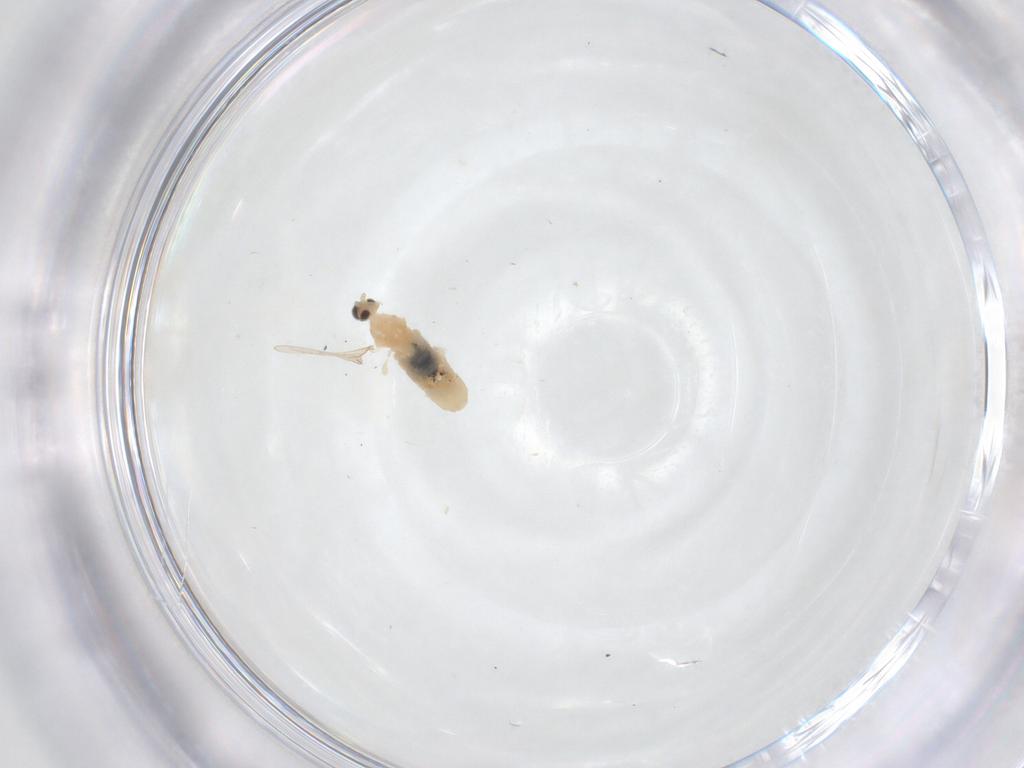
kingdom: Animalia
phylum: Arthropoda
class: Insecta
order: Diptera
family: Cecidomyiidae
